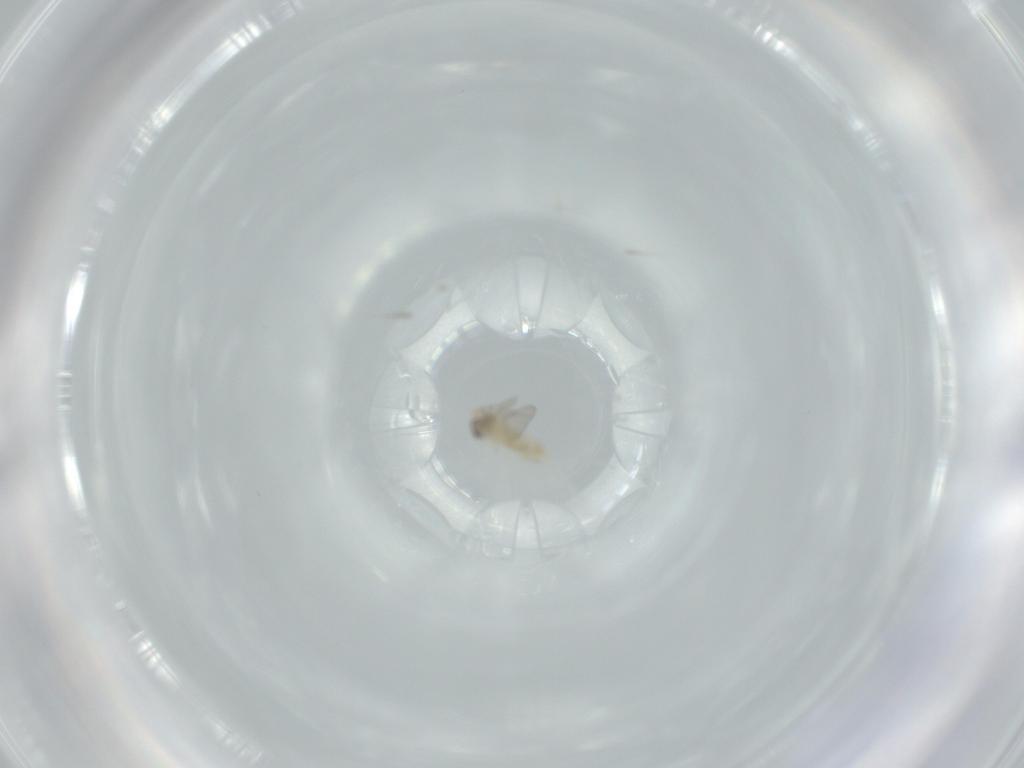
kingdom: Animalia
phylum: Arthropoda
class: Insecta
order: Diptera
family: Cecidomyiidae
